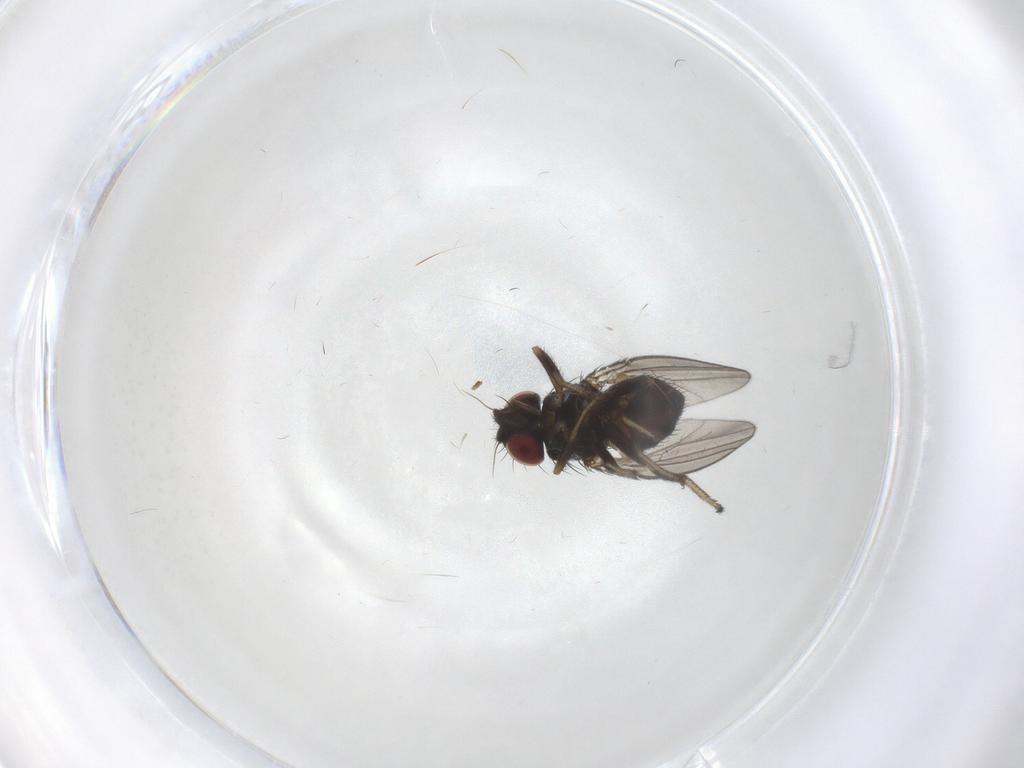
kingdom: Animalia
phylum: Arthropoda
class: Insecta
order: Diptera
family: Milichiidae
